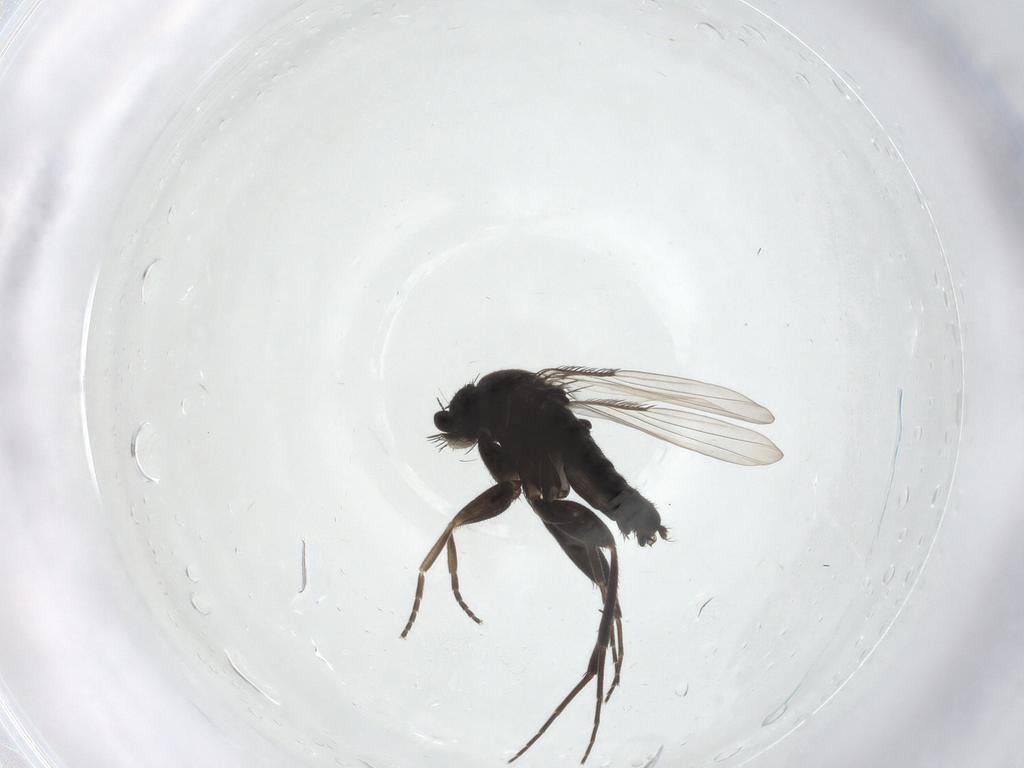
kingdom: Animalia
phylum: Arthropoda
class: Insecta
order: Diptera
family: Phoridae
